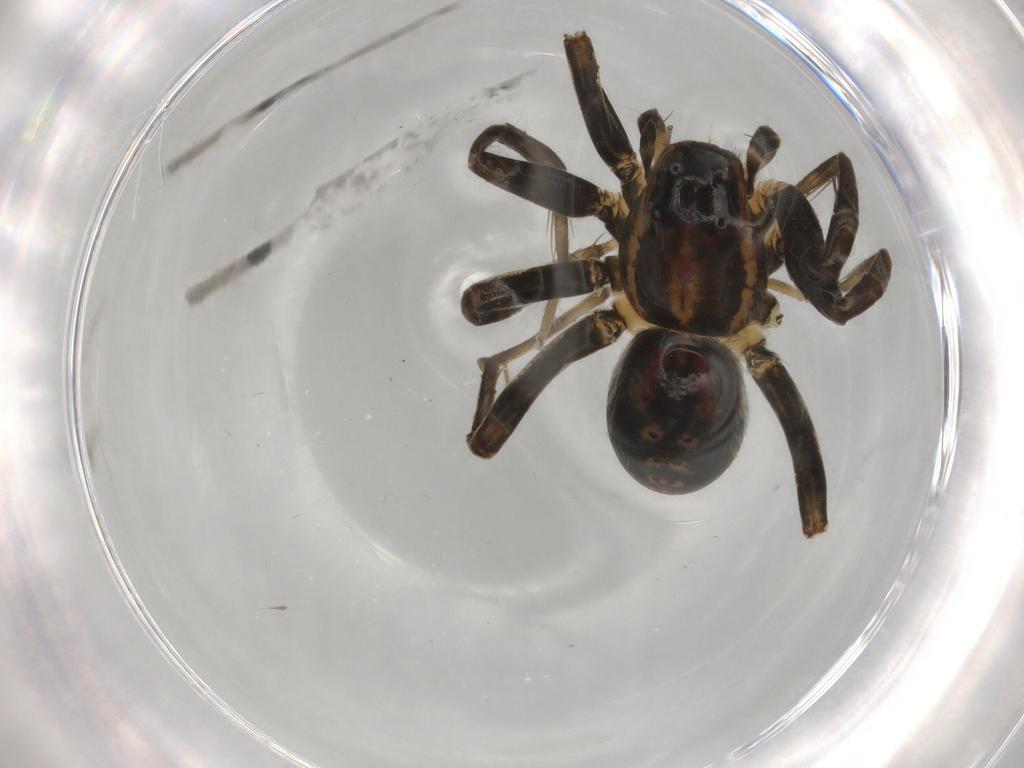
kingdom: Animalia
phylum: Arthropoda
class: Arachnida
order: Araneae
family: Lycosidae
